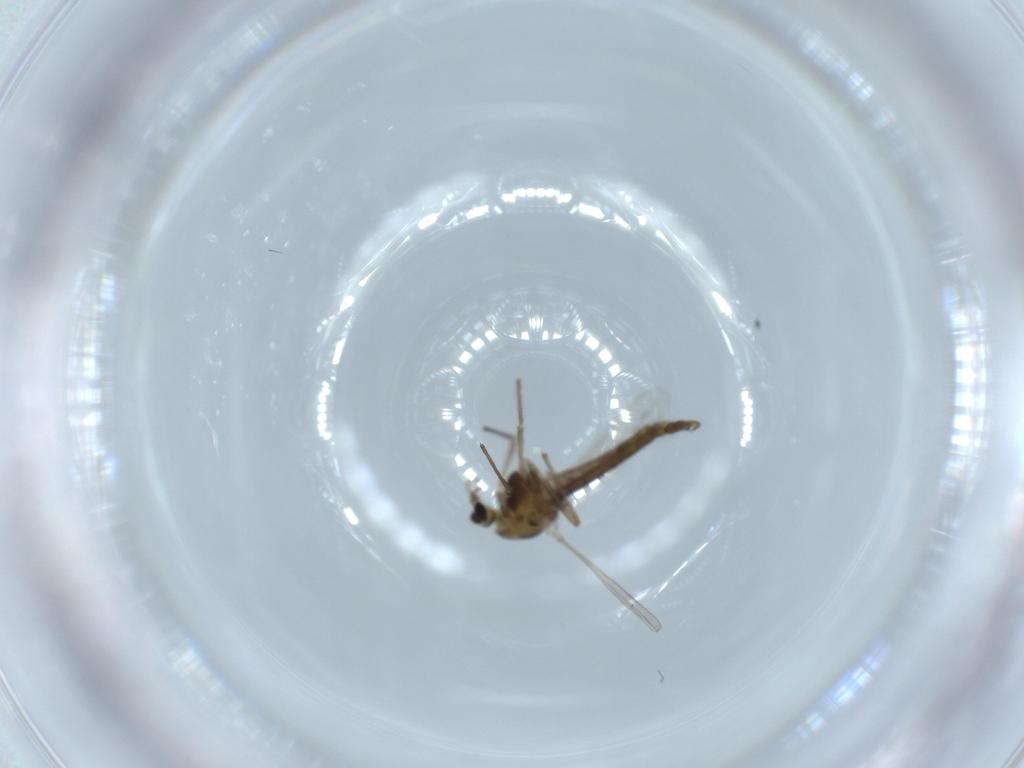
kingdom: Animalia
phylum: Arthropoda
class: Insecta
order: Diptera
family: Chironomidae
